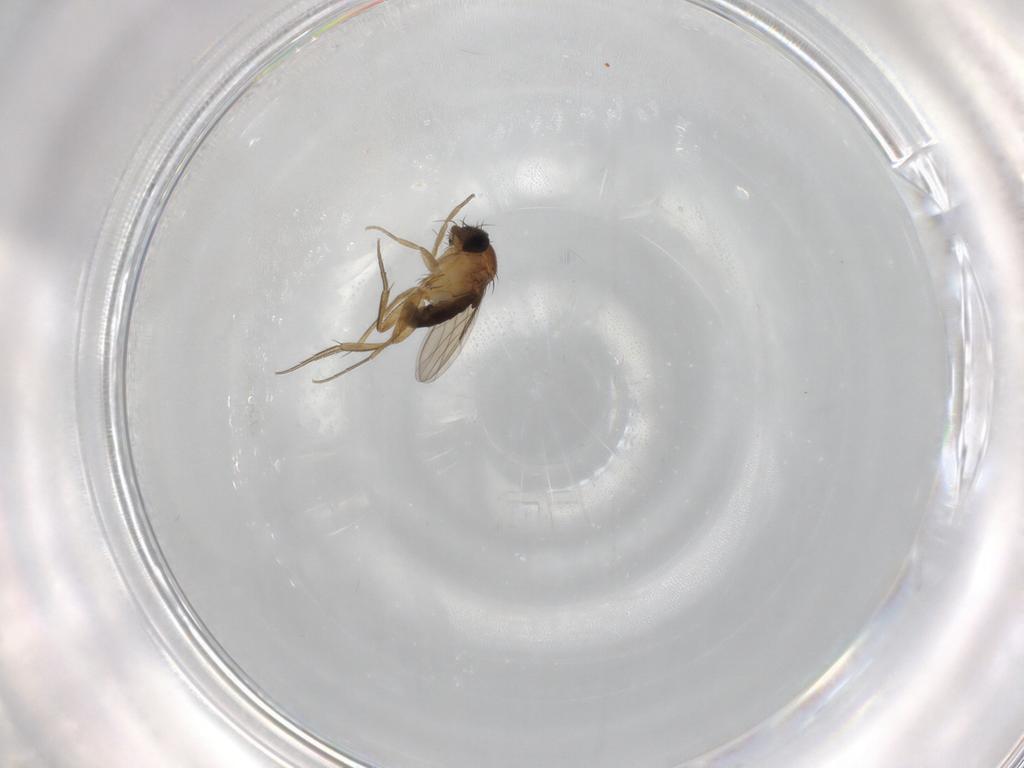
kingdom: Animalia
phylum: Arthropoda
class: Insecta
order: Diptera
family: Phoridae
